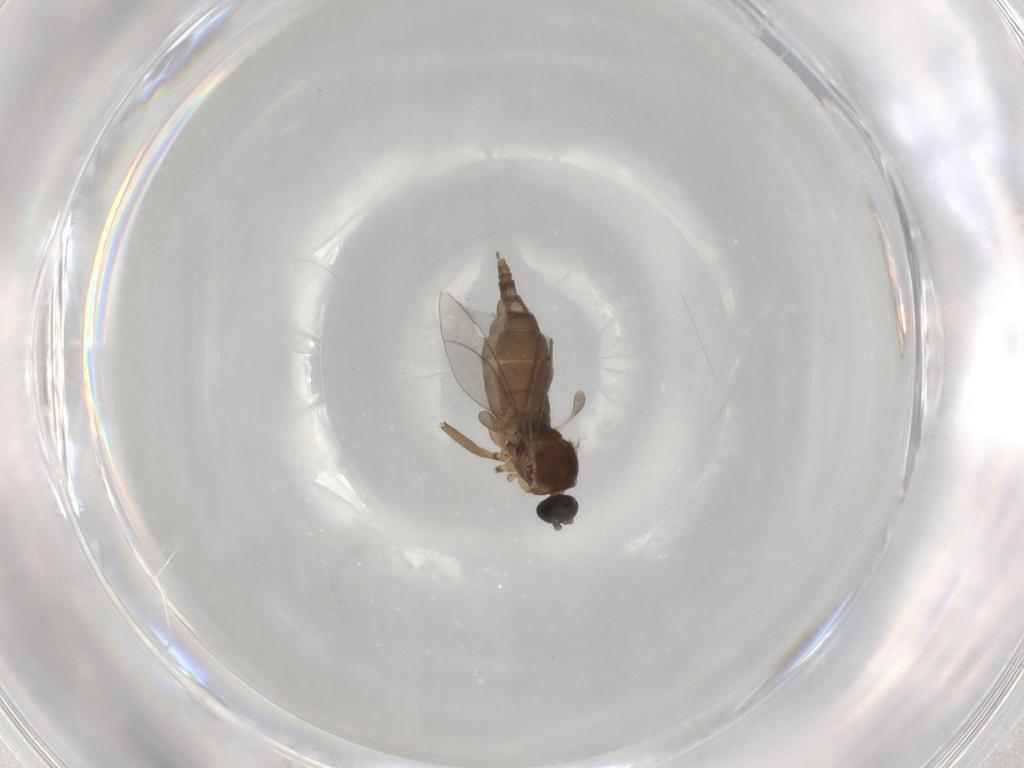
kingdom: Animalia
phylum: Arthropoda
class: Insecta
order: Diptera
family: Sciaridae
